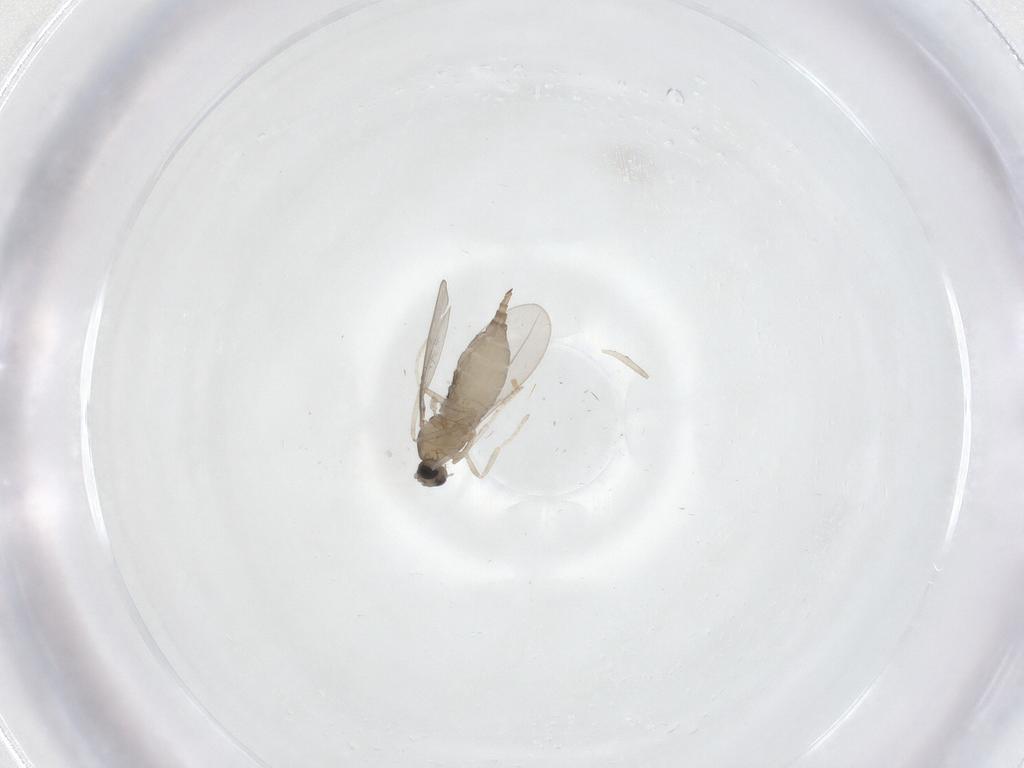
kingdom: Animalia
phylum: Arthropoda
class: Insecta
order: Diptera
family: Cecidomyiidae
